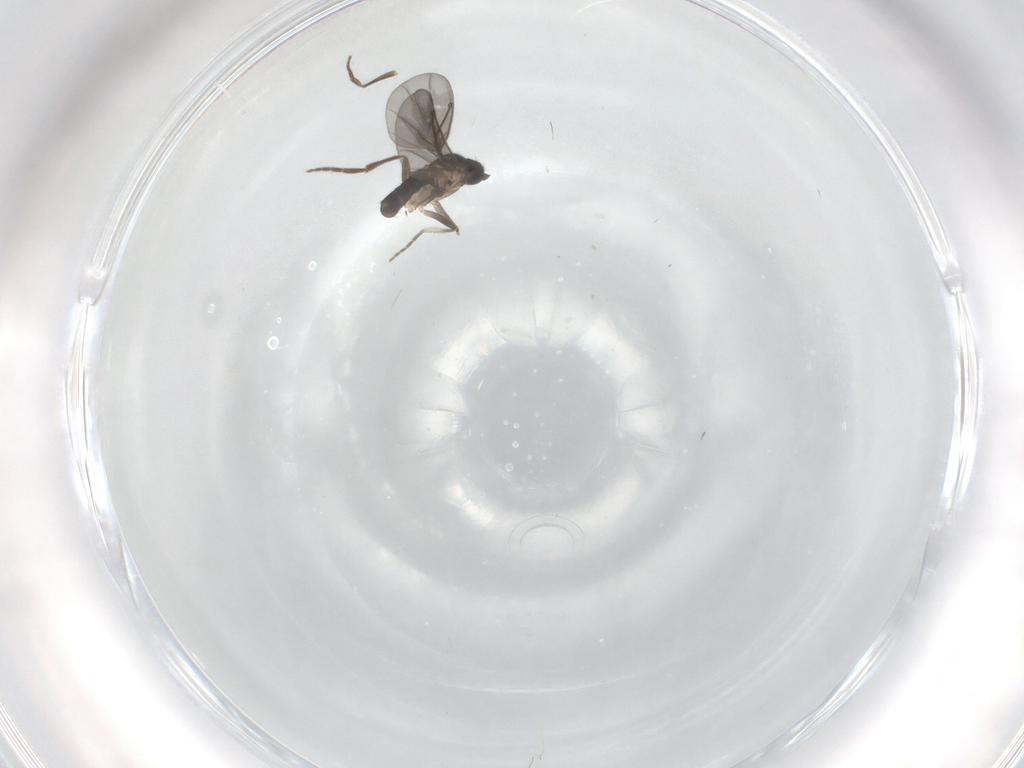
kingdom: Animalia
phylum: Arthropoda
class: Insecta
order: Diptera
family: Phoridae
